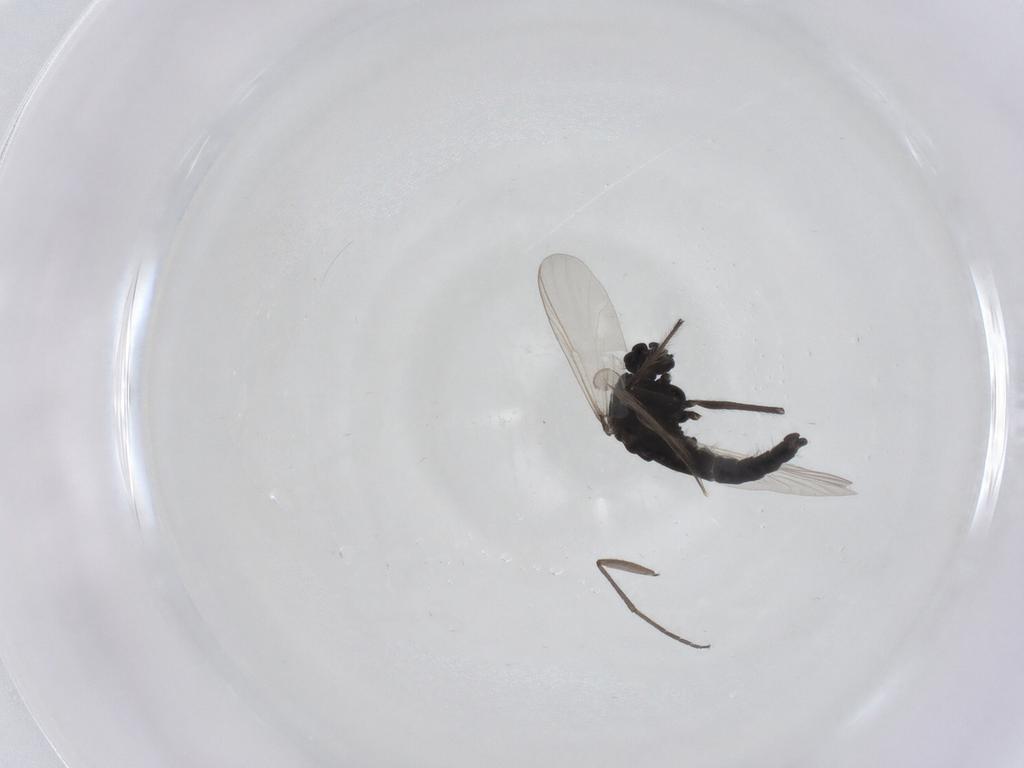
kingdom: Animalia
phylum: Arthropoda
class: Insecta
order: Diptera
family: Chironomidae
